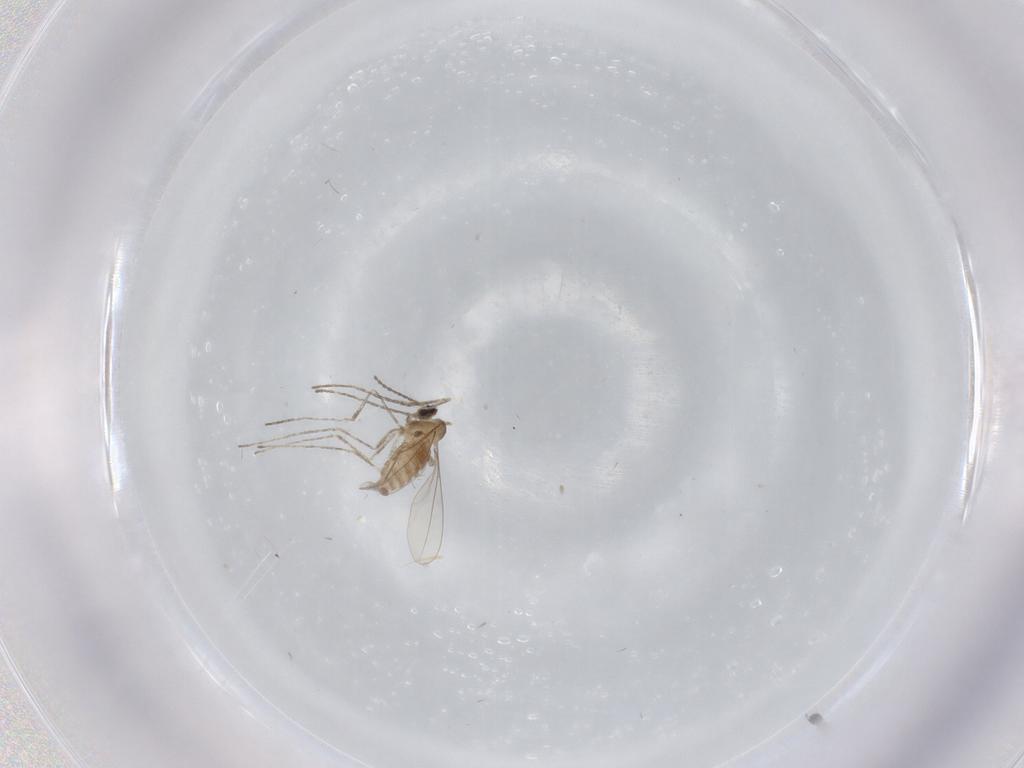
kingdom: Animalia
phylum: Arthropoda
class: Insecta
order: Diptera
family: Cecidomyiidae
